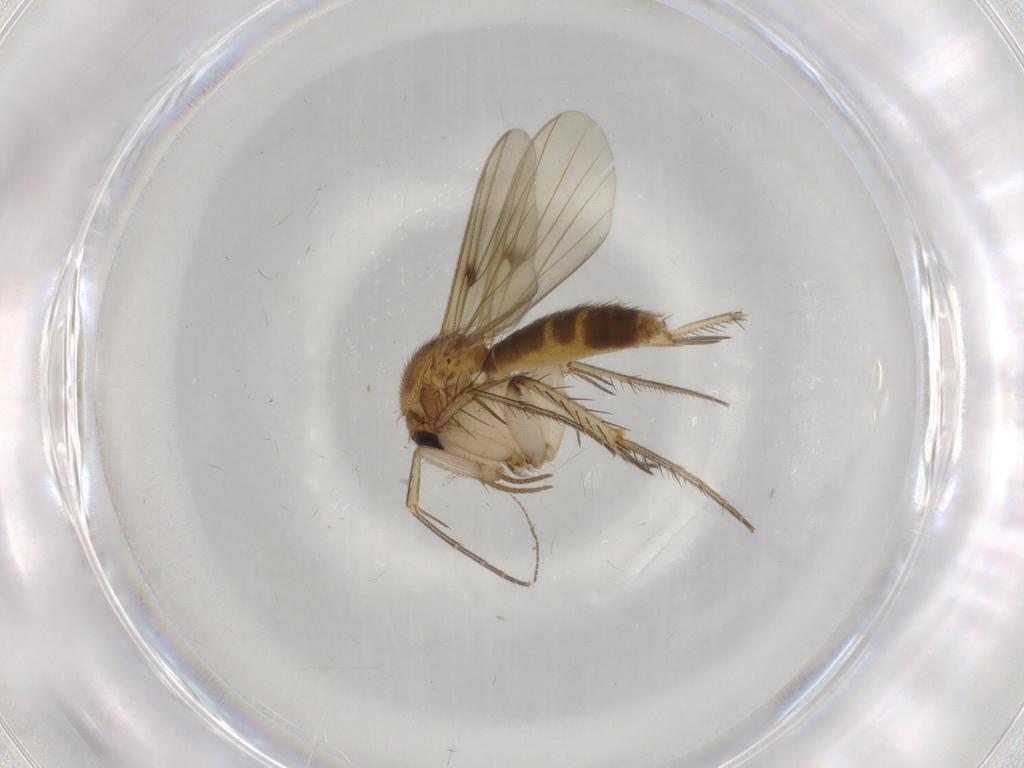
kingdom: Animalia
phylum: Arthropoda
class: Insecta
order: Diptera
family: Sciaridae
